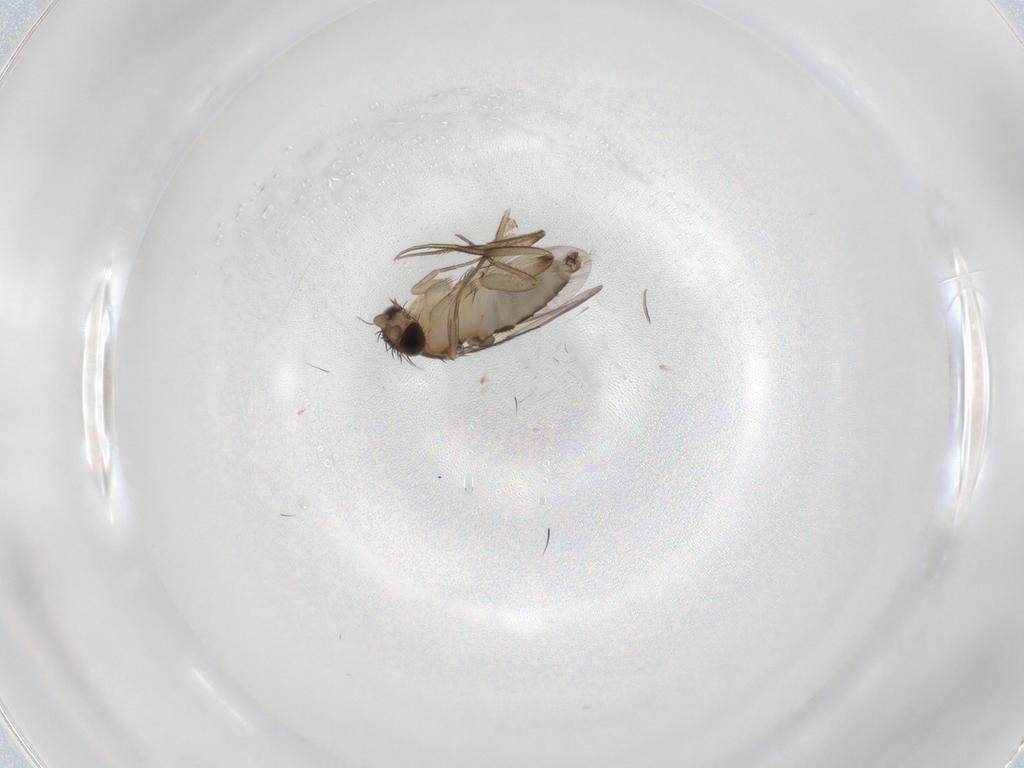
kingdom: Animalia
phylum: Arthropoda
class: Insecta
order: Diptera
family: Phoridae
